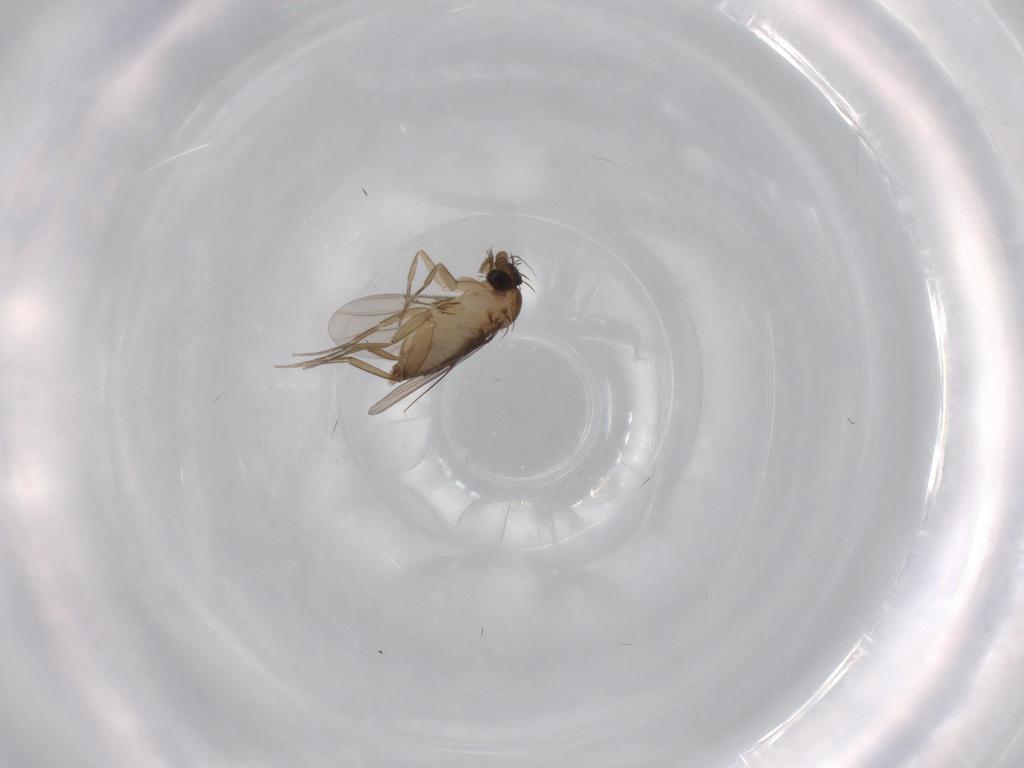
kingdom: Animalia
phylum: Arthropoda
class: Insecta
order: Diptera
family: Phoridae
